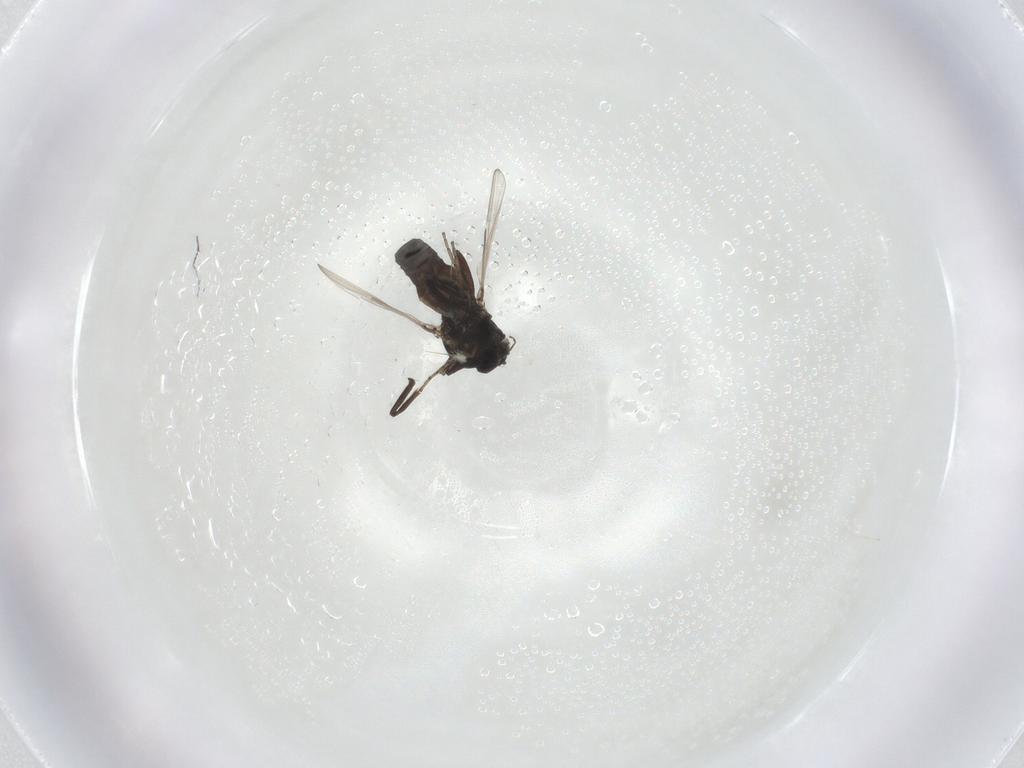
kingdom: Animalia
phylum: Arthropoda
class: Insecta
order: Diptera
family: Ceratopogonidae
